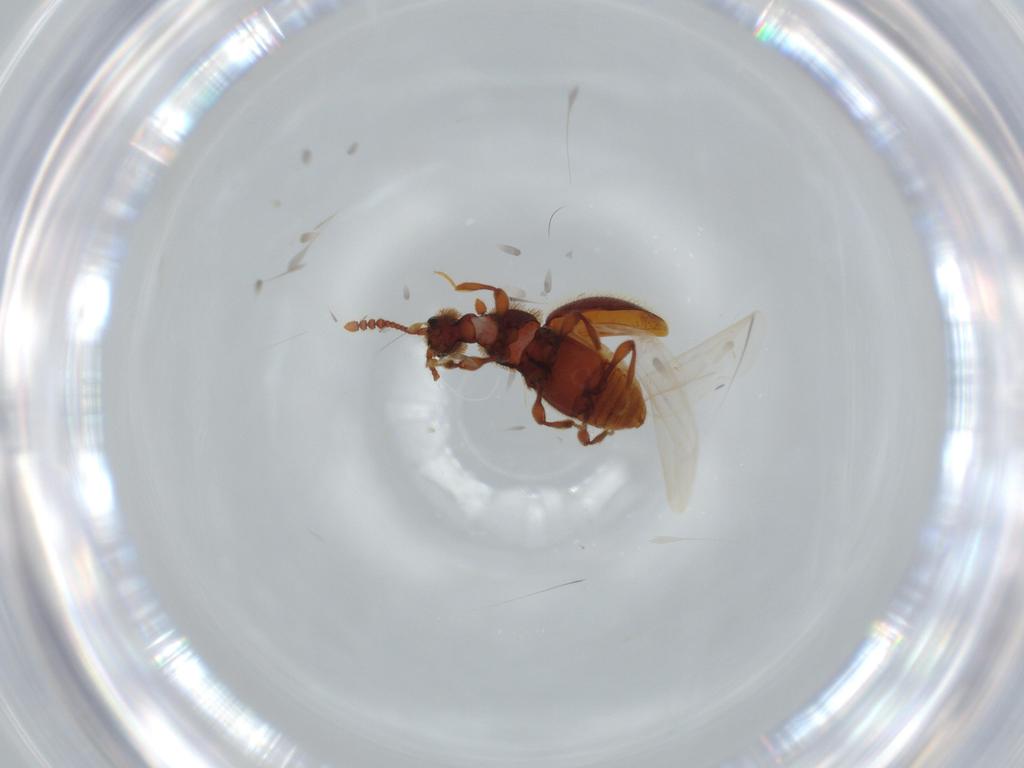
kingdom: Animalia
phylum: Arthropoda
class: Insecta
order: Coleoptera
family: Staphylinidae
